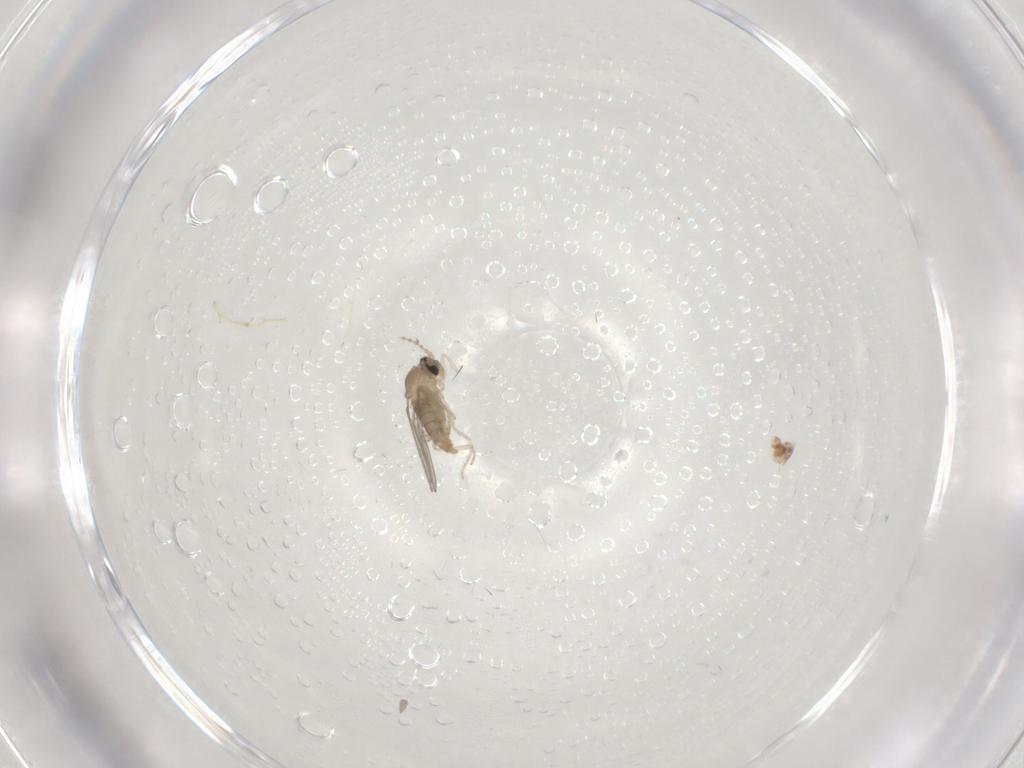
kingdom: Animalia
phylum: Arthropoda
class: Insecta
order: Diptera
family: Cecidomyiidae
